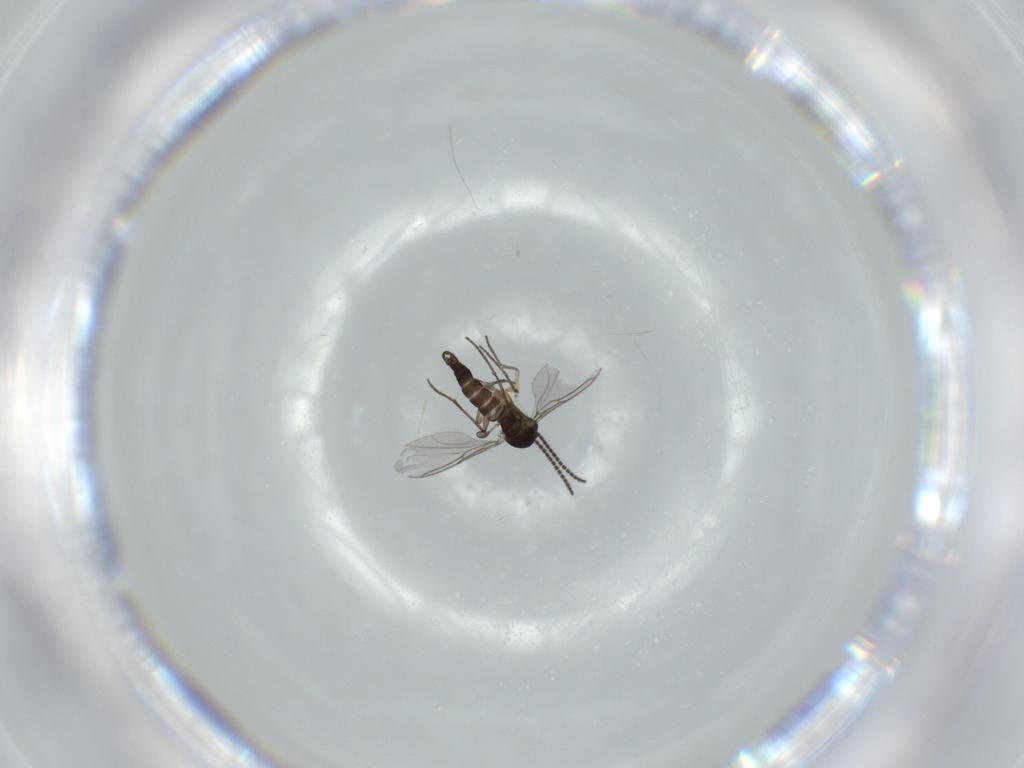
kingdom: Animalia
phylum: Arthropoda
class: Insecta
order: Diptera
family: Sciaridae
